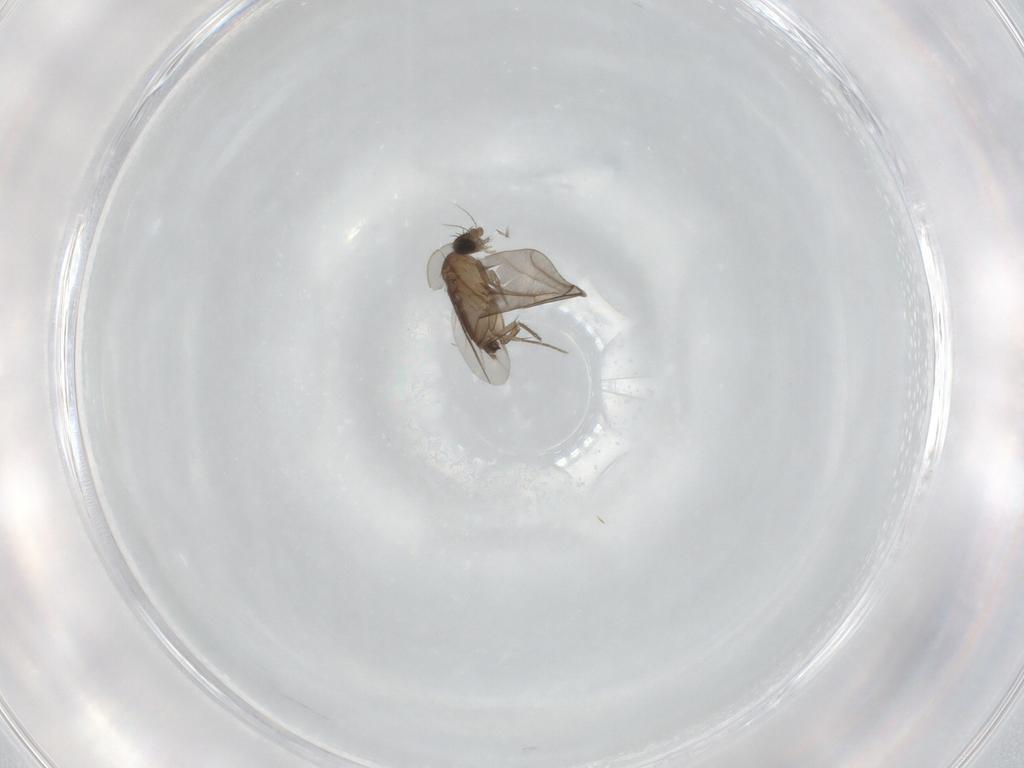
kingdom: Animalia
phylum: Arthropoda
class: Insecta
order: Diptera
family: Phoridae
